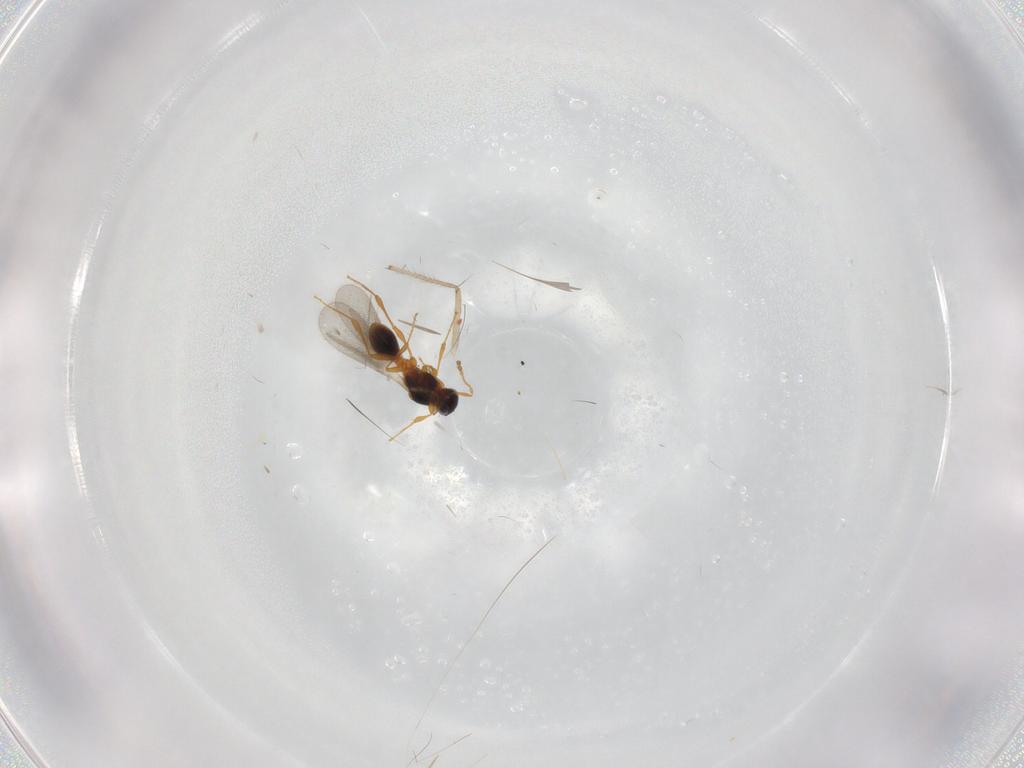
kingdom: Animalia
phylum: Arthropoda
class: Insecta
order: Hymenoptera
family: Platygastridae
